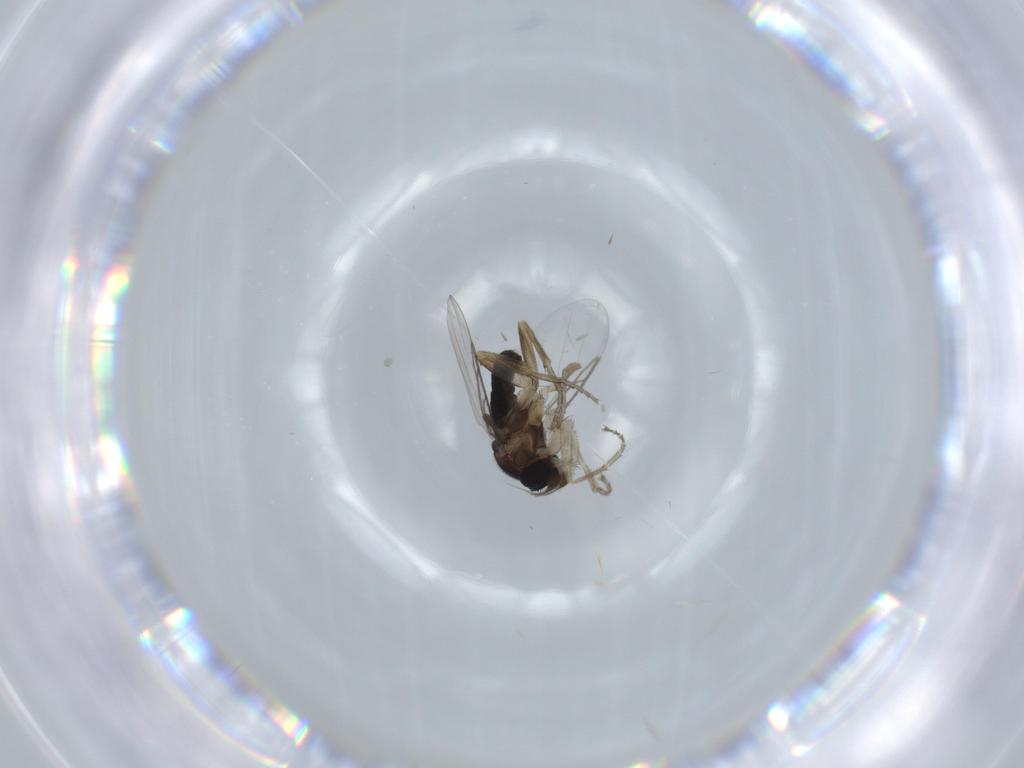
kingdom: Animalia
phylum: Arthropoda
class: Insecta
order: Diptera
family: Phoridae
